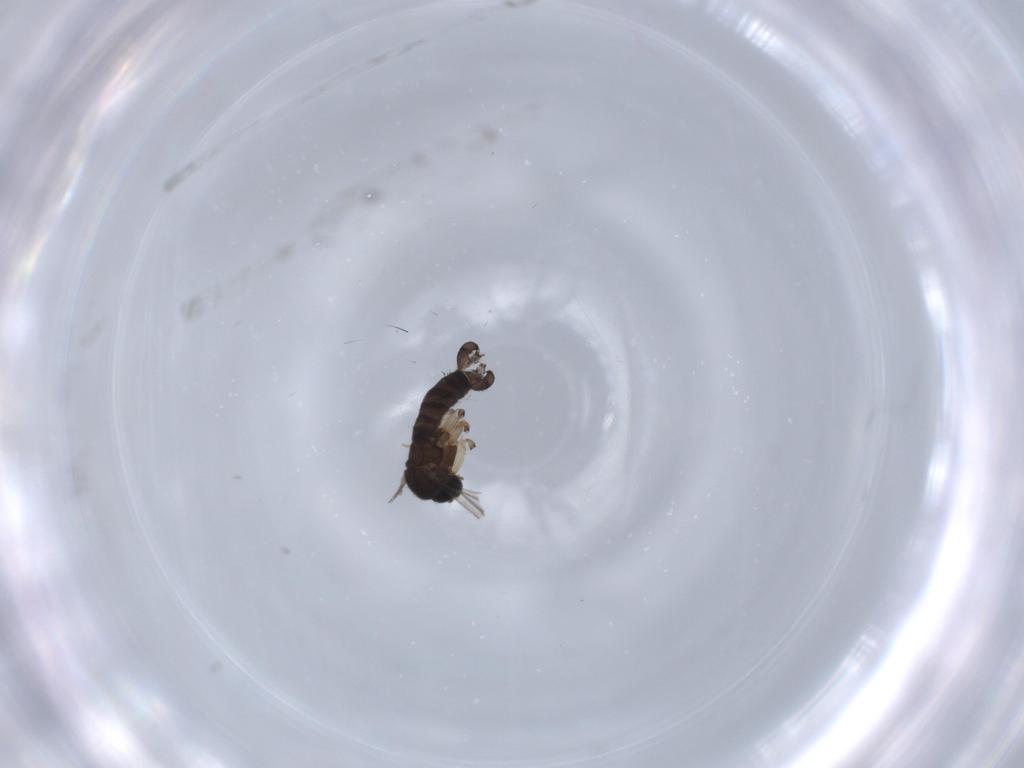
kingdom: Animalia
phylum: Arthropoda
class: Insecta
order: Diptera
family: Sciaridae
